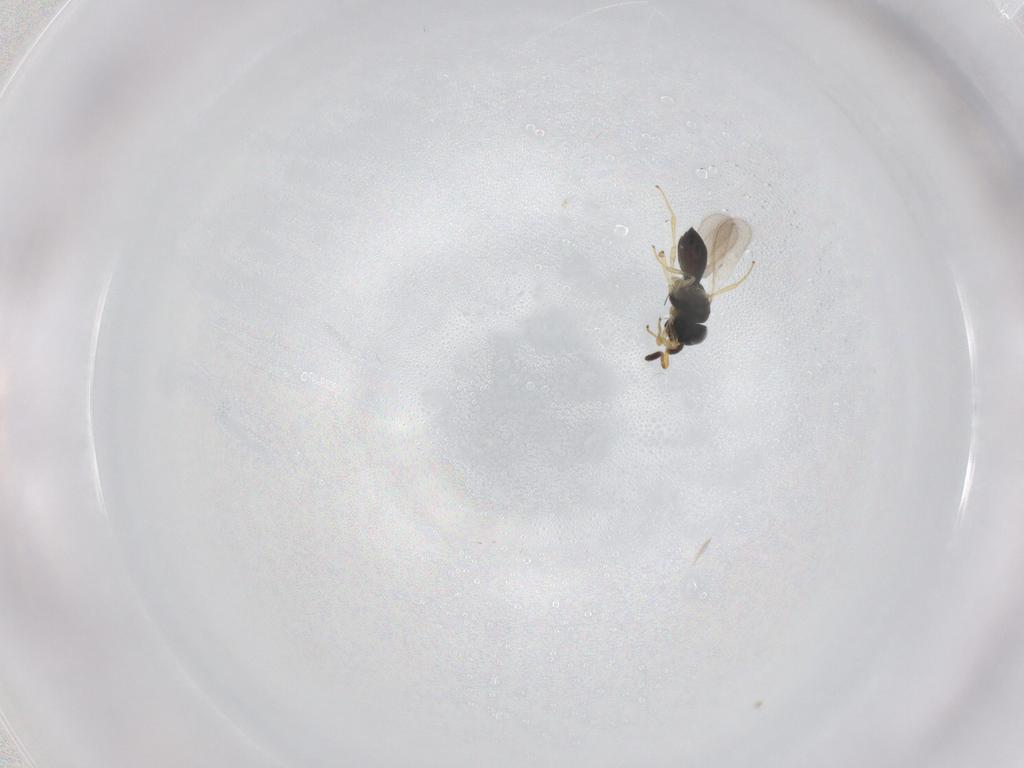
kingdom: Animalia
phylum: Arthropoda
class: Insecta
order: Hymenoptera
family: Scelionidae
